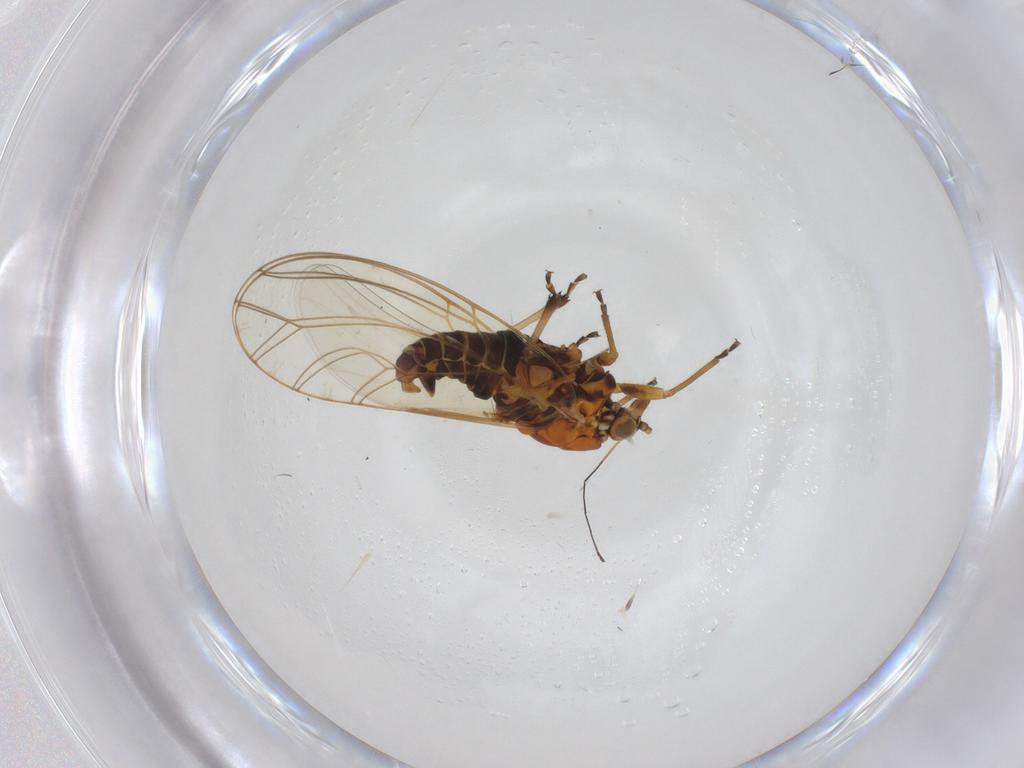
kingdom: Animalia
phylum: Arthropoda
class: Insecta
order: Hemiptera
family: Triozidae
